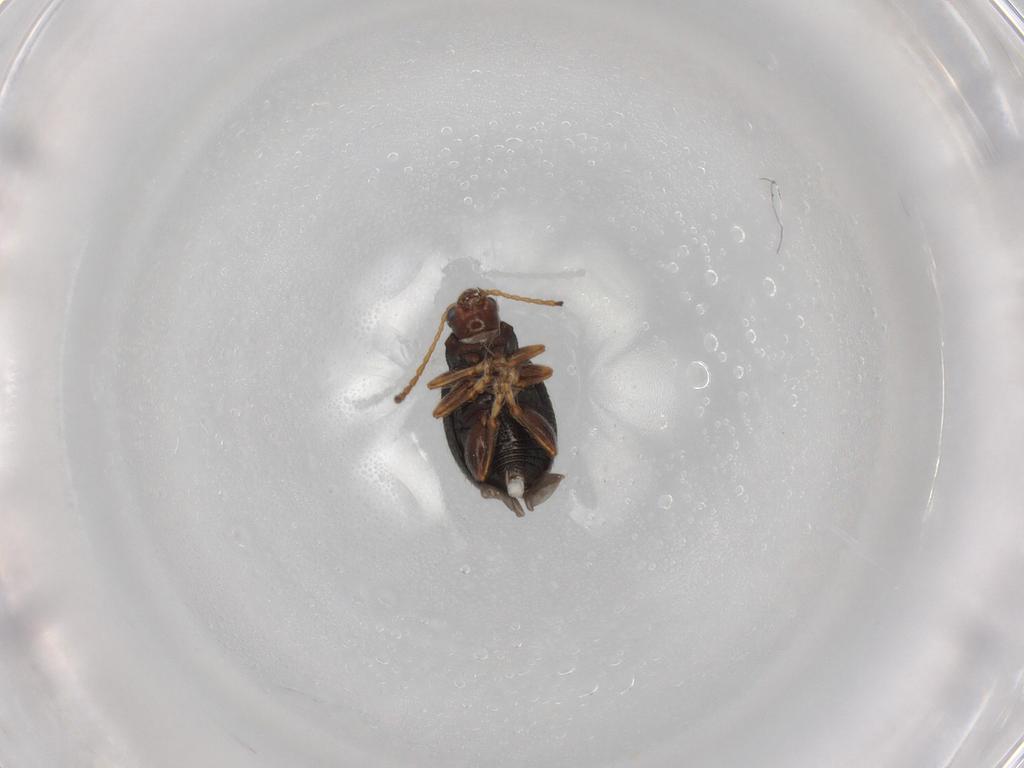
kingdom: Animalia
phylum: Arthropoda
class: Insecta
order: Coleoptera
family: Chrysomelidae
